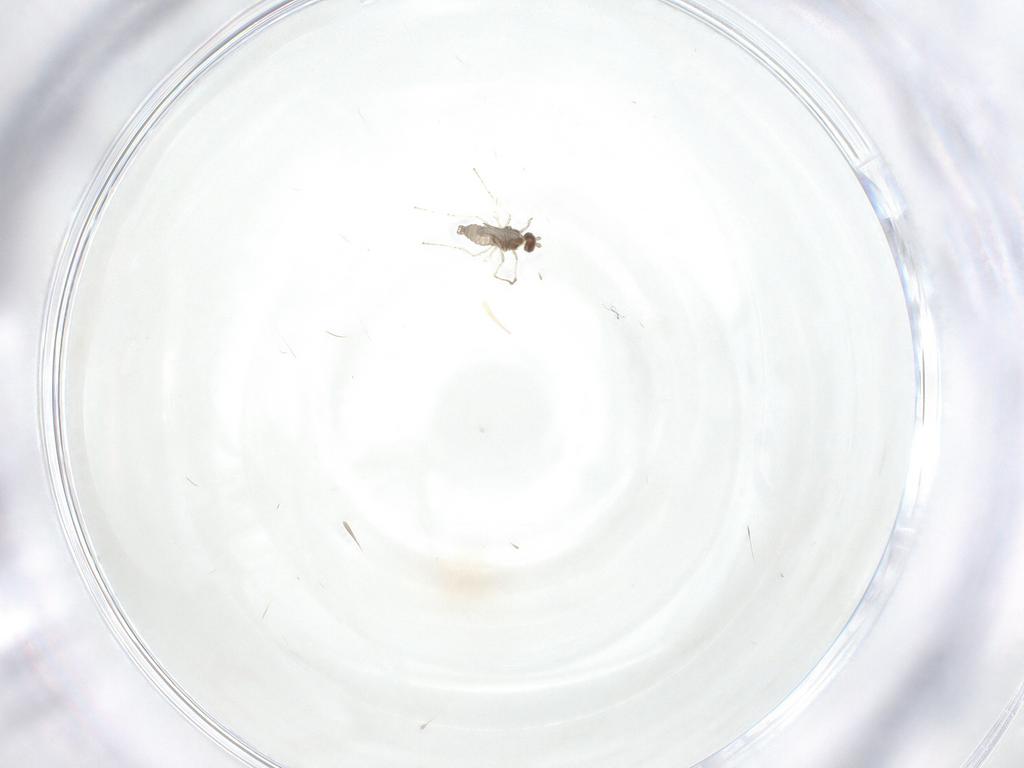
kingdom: Animalia
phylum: Arthropoda
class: Insecta
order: Diptera
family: Cecidomyiidae
